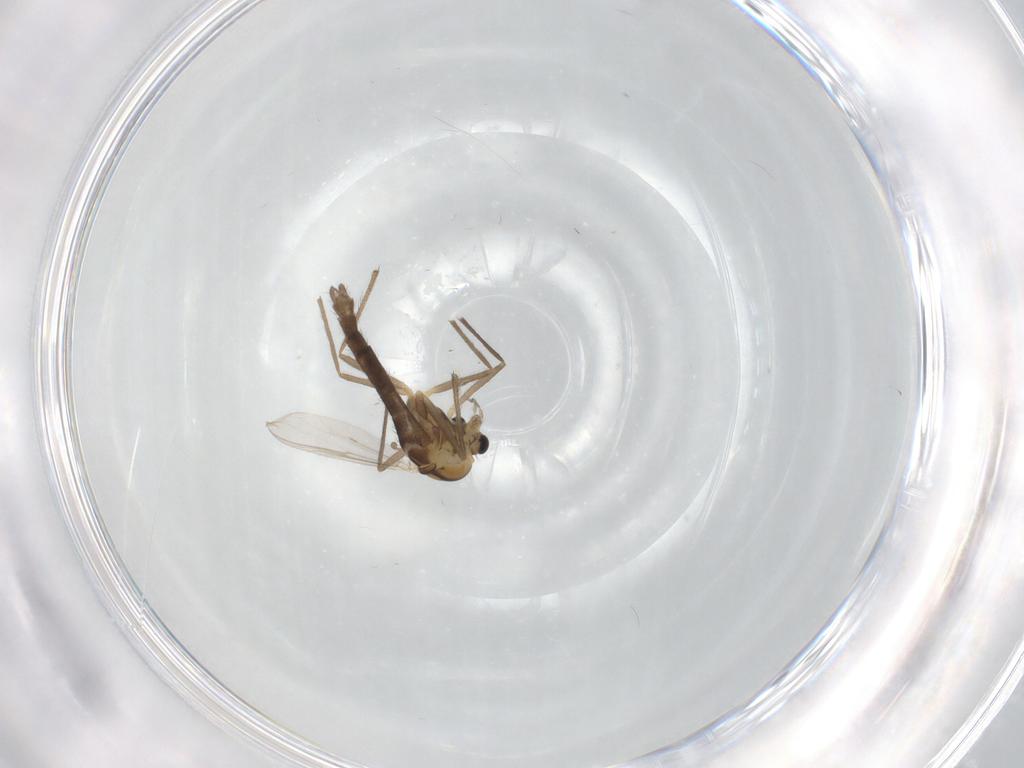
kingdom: Animalia
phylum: Arthropoda
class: Insecta
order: Diptera
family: Chironomidae
